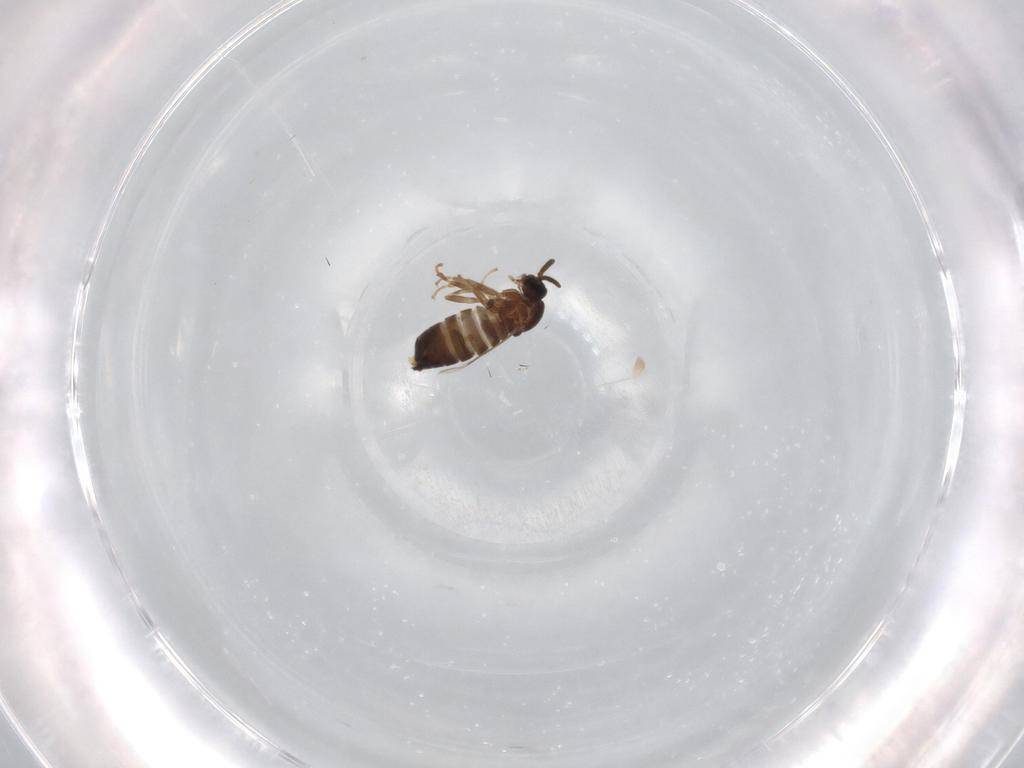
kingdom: Animalia
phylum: Arthropoda
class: Insecta
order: Diptera
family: Scatopsidae
